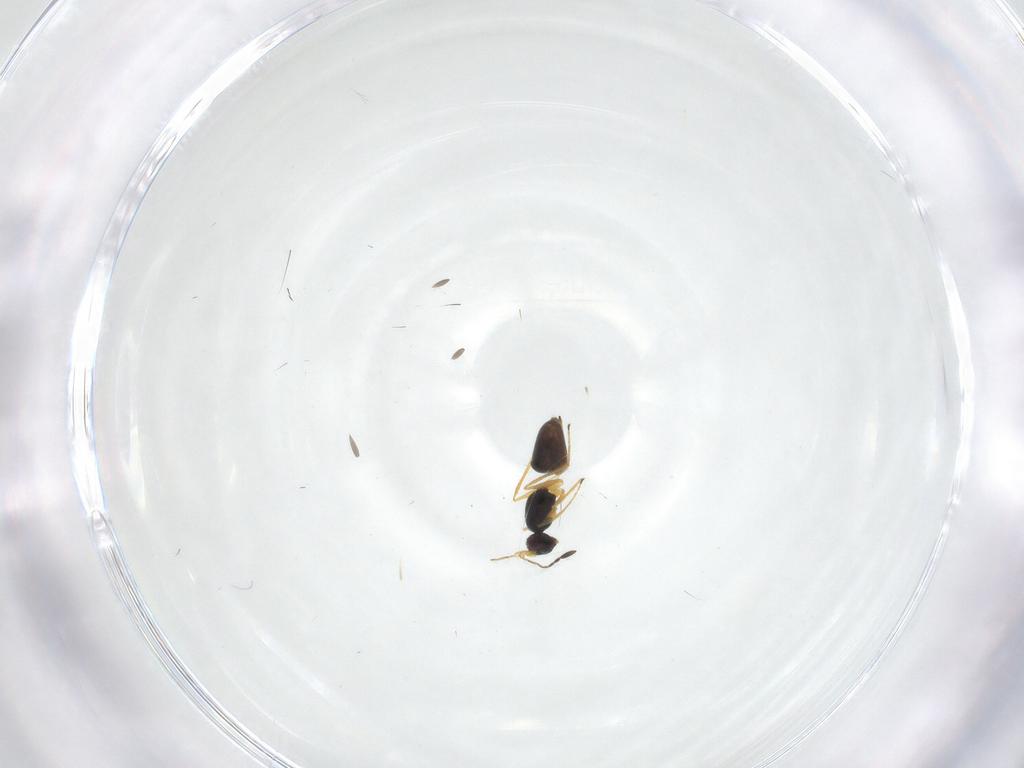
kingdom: Animalia
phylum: Arthropoda
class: Insecta
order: Hymenoptera
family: Mymaridae
